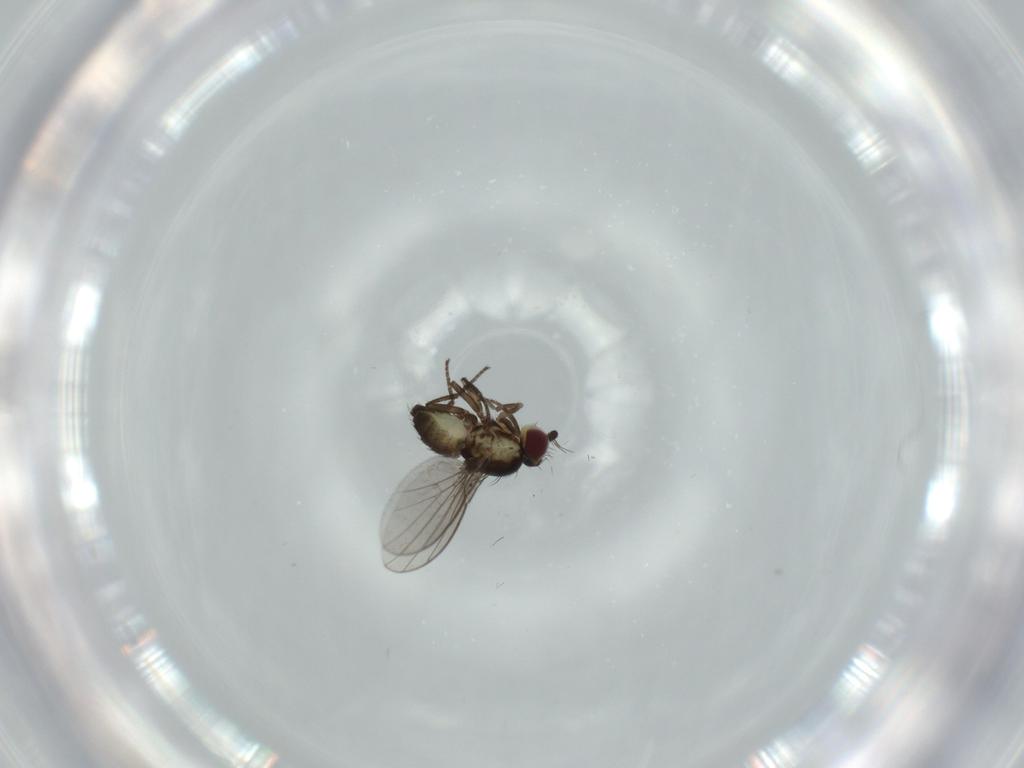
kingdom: Animalia
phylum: Arthropoda
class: Insecta
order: Diptera
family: Agromyzidae
